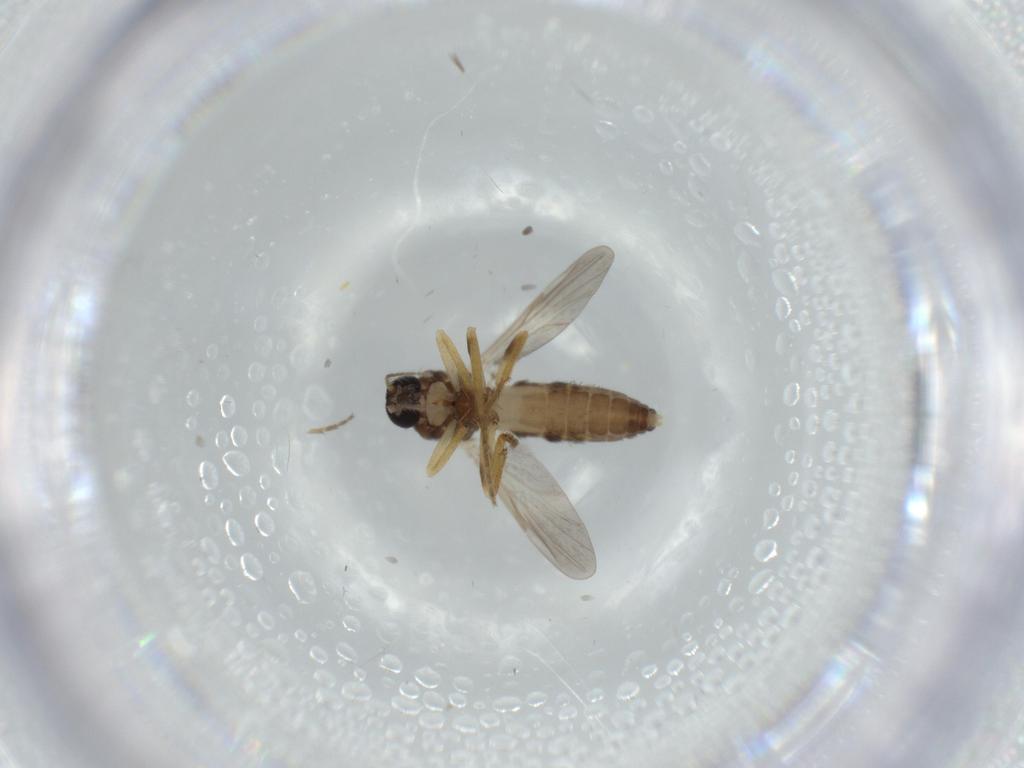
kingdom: Animalia
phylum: Arthropoda
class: Insecta
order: Diptera
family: Ceratopogonidae
